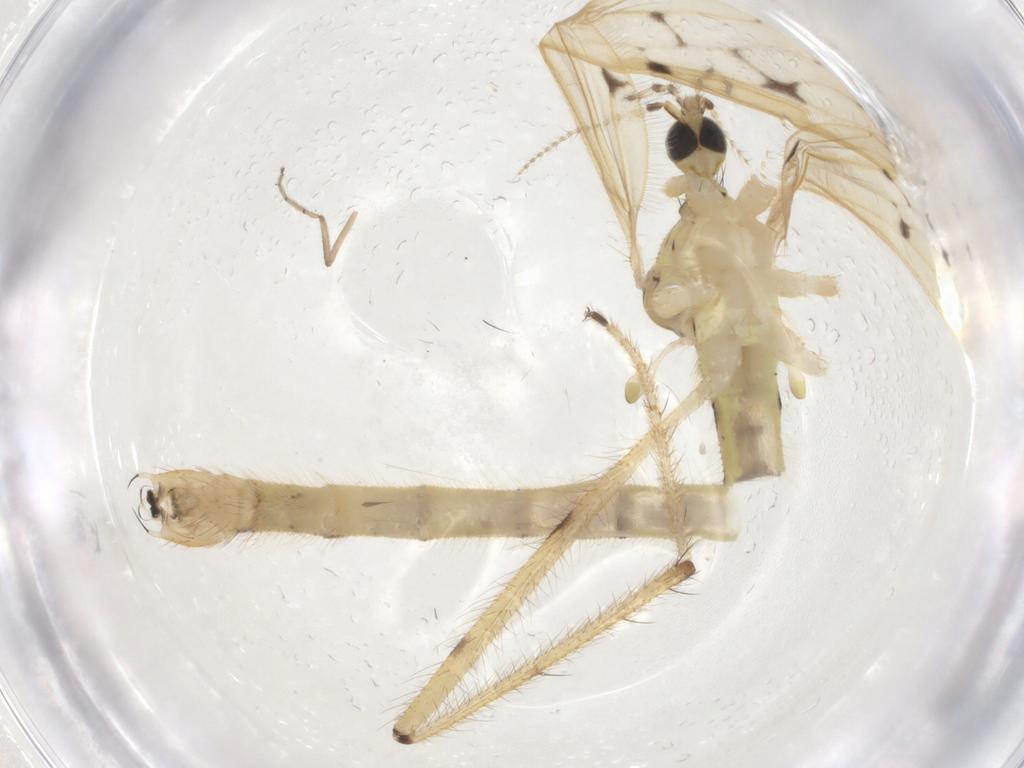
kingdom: Animalia
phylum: Arthropoda
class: Insecta
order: Diptera
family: Limoniidae
